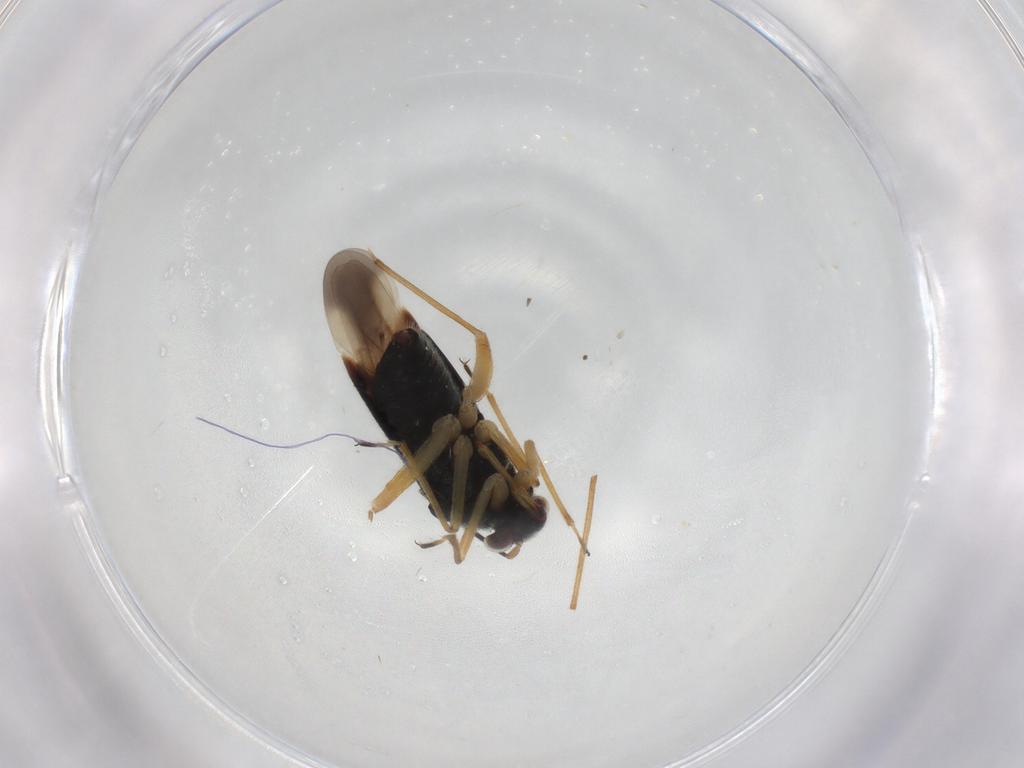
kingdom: Animalia
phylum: Arthropoda
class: Insecta
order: Hemiptera
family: Miridae
